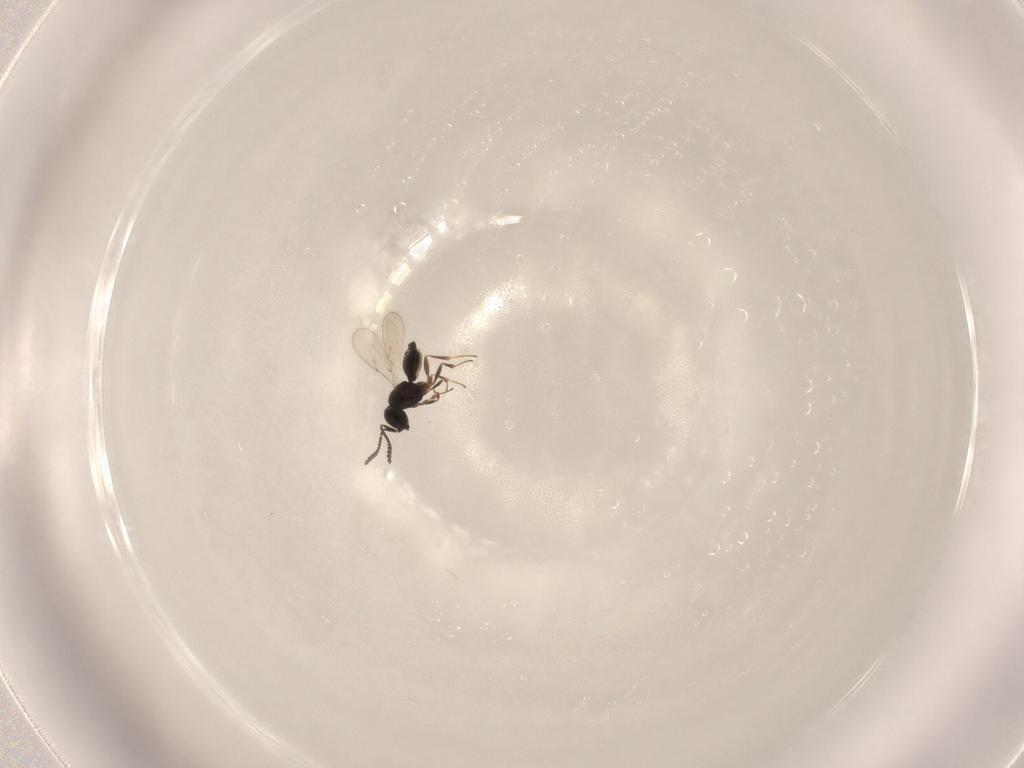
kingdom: Animalia
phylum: Arthropoda
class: Insecta
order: Hymenoptera
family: Scelionidae
